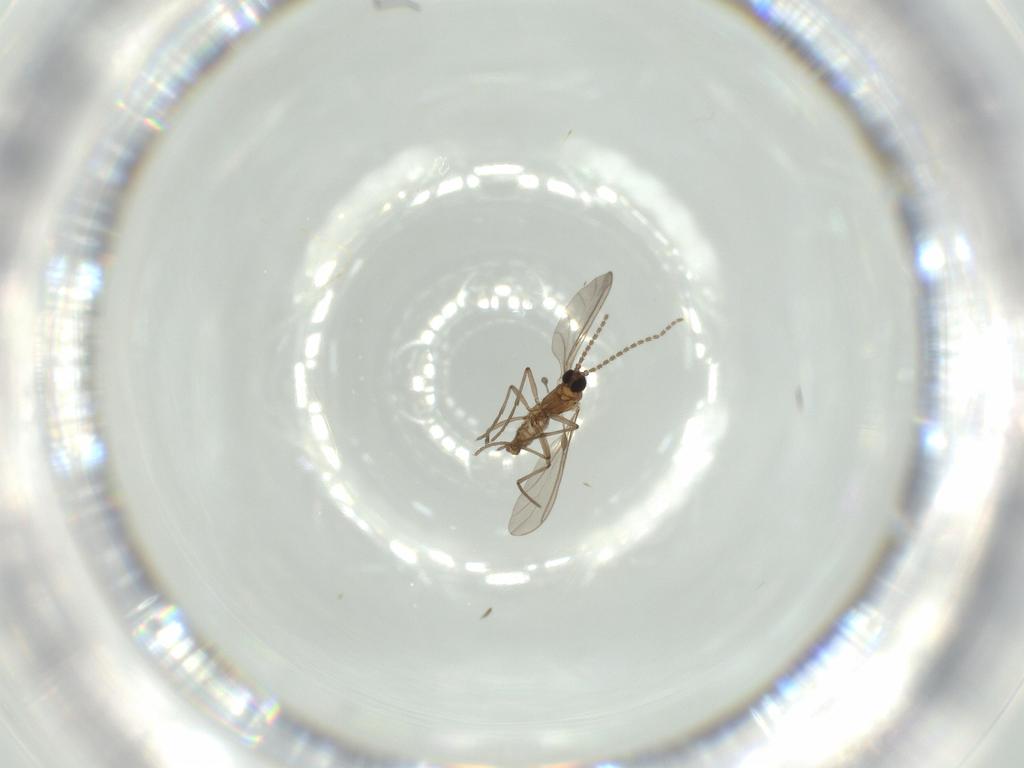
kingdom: Animalia
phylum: Arthropoda
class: Insecta
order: Diptera
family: Sciaridae
